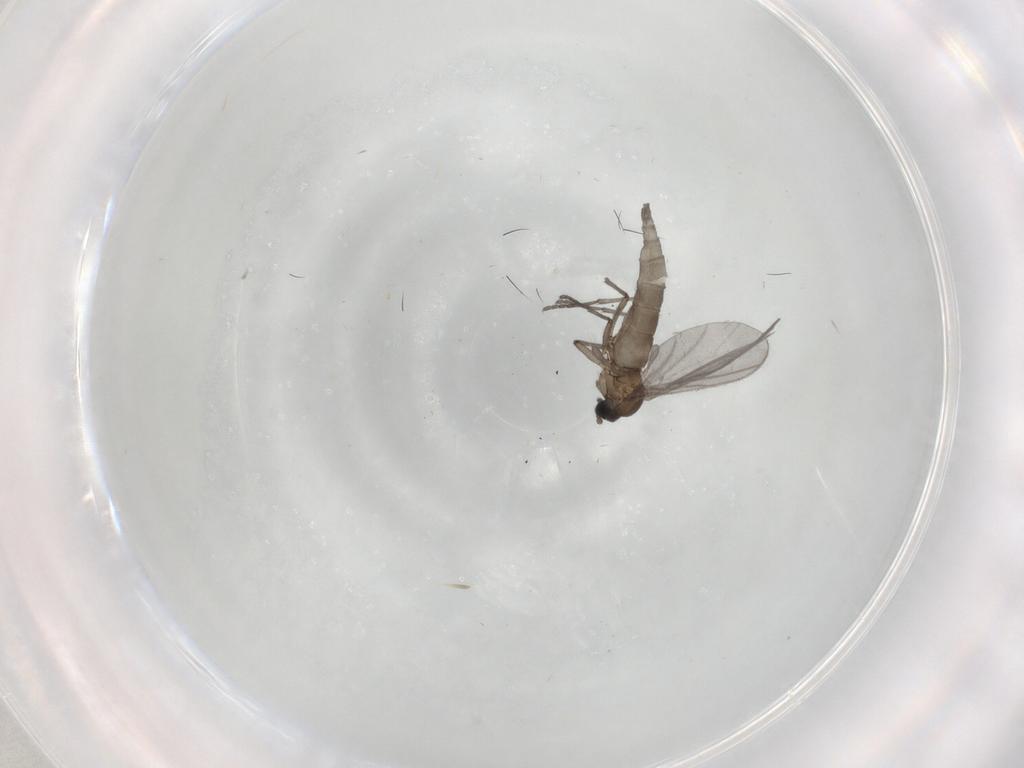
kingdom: Animalia
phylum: Arthropoda
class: Insecta
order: Diptera
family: Sciaridae
